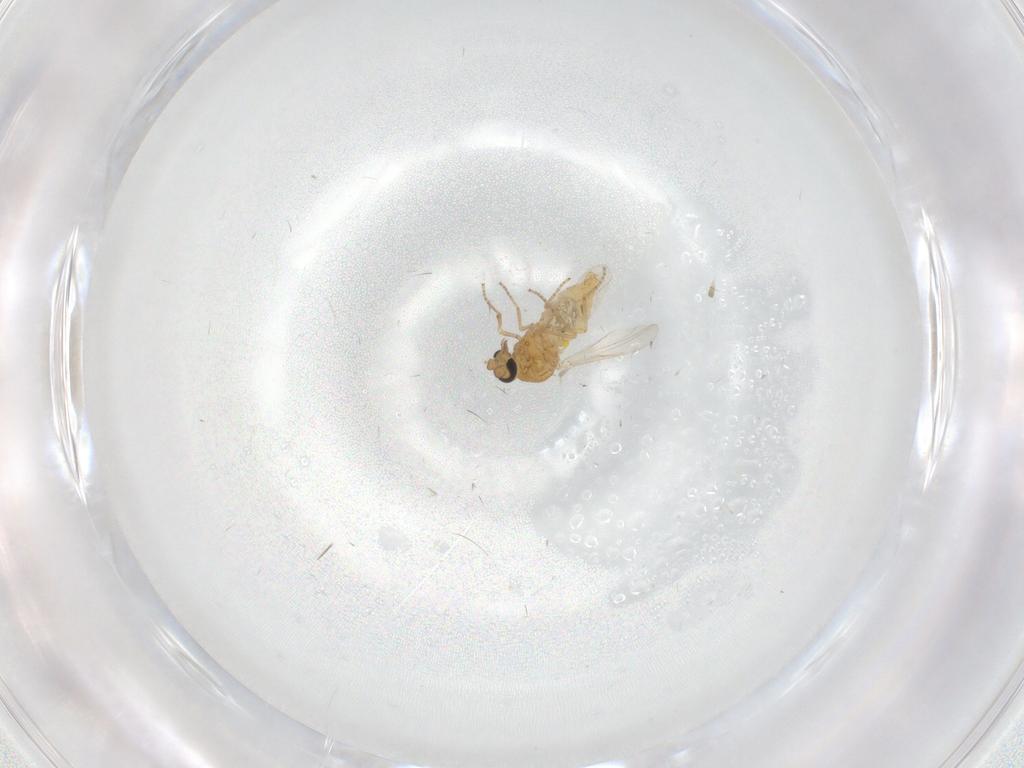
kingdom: Animalia
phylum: Arthropoda
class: Insecta
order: Diptera
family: Ceratopogonidae
